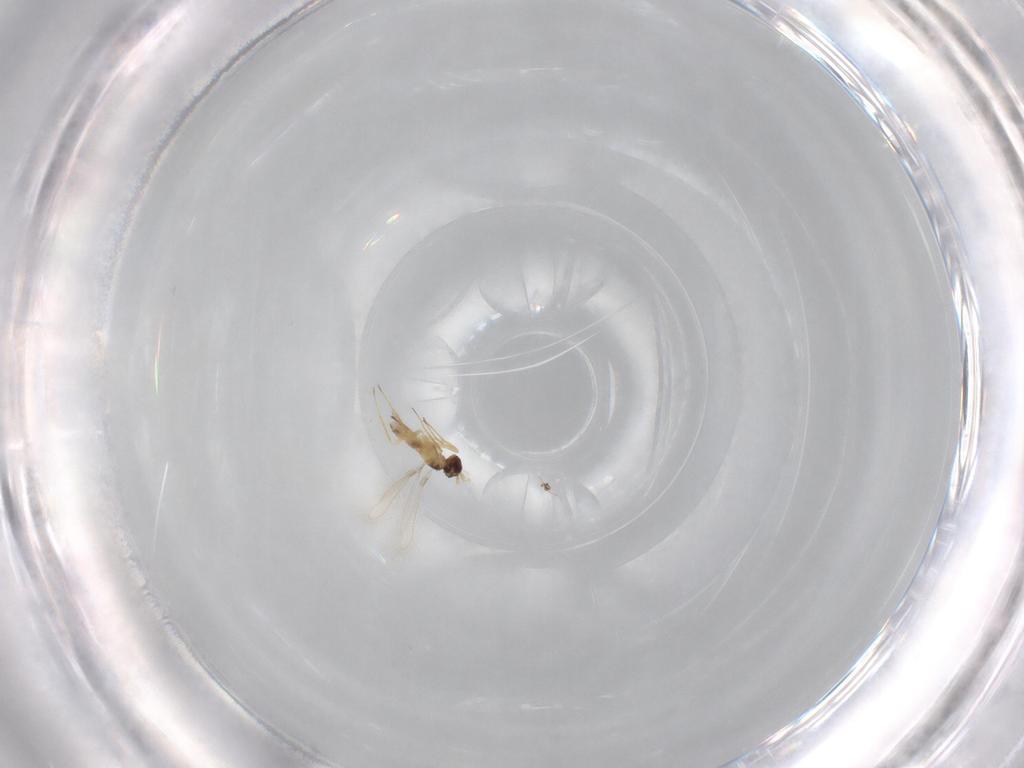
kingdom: Animalia
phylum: Arthropoda
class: Insecta
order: Hymenoptera
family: Mymaridae
